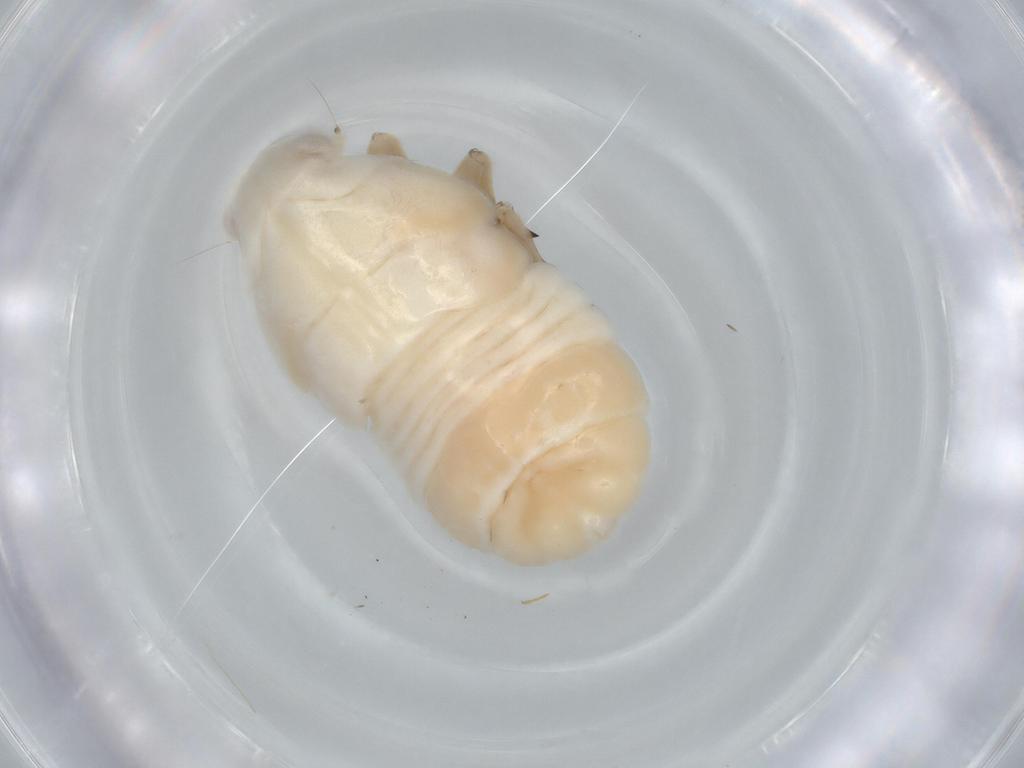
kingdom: Animalia
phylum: Arthropoda
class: Insecta
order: Hemiptera
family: Flatidae
